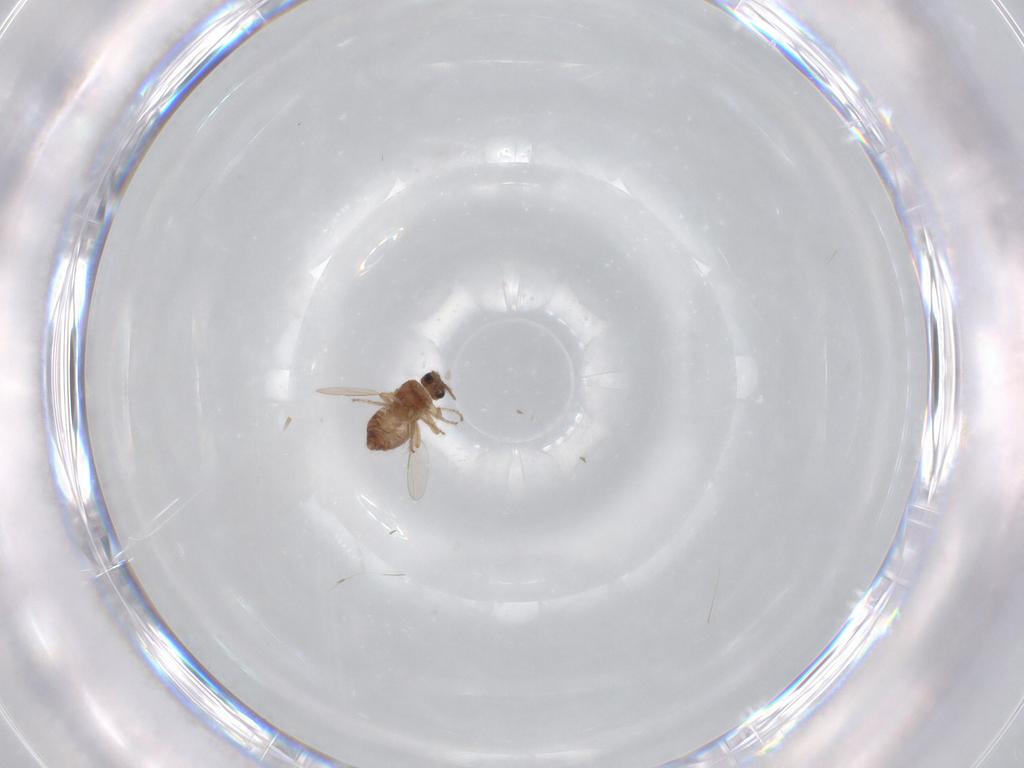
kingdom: Animalia
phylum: Arthropoda
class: Insecta
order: Diptera
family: Ceratopogonidae
